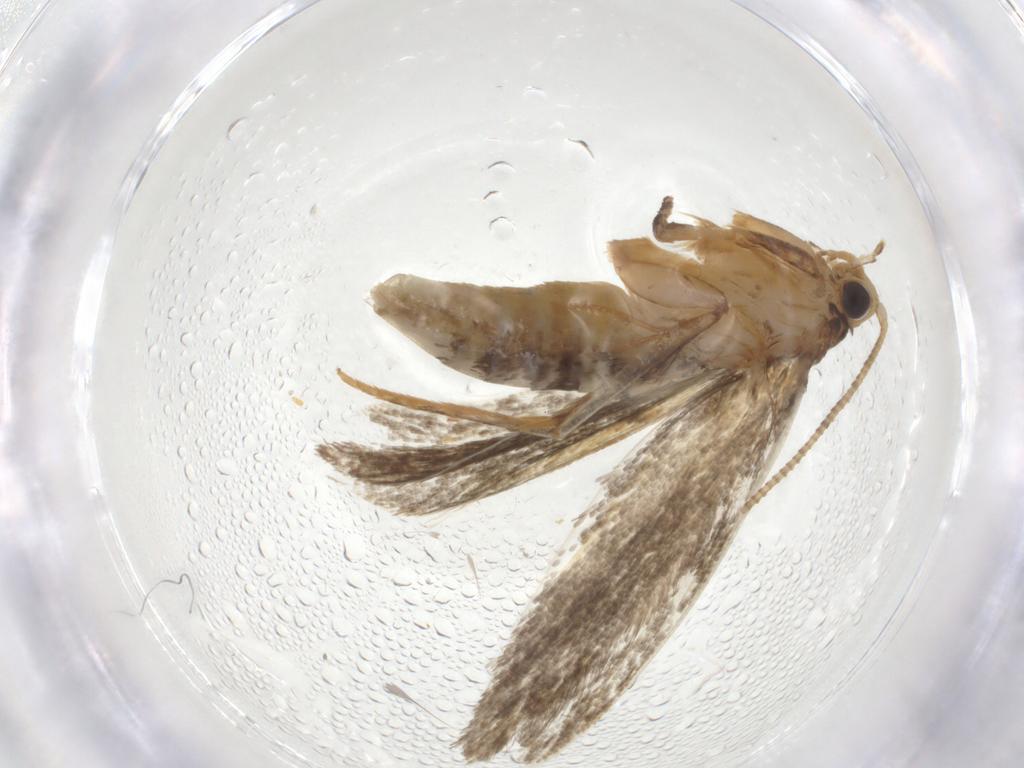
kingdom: Animalia
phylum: Arthropoda
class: Insecta
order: Lepidoptera
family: Tineidae
